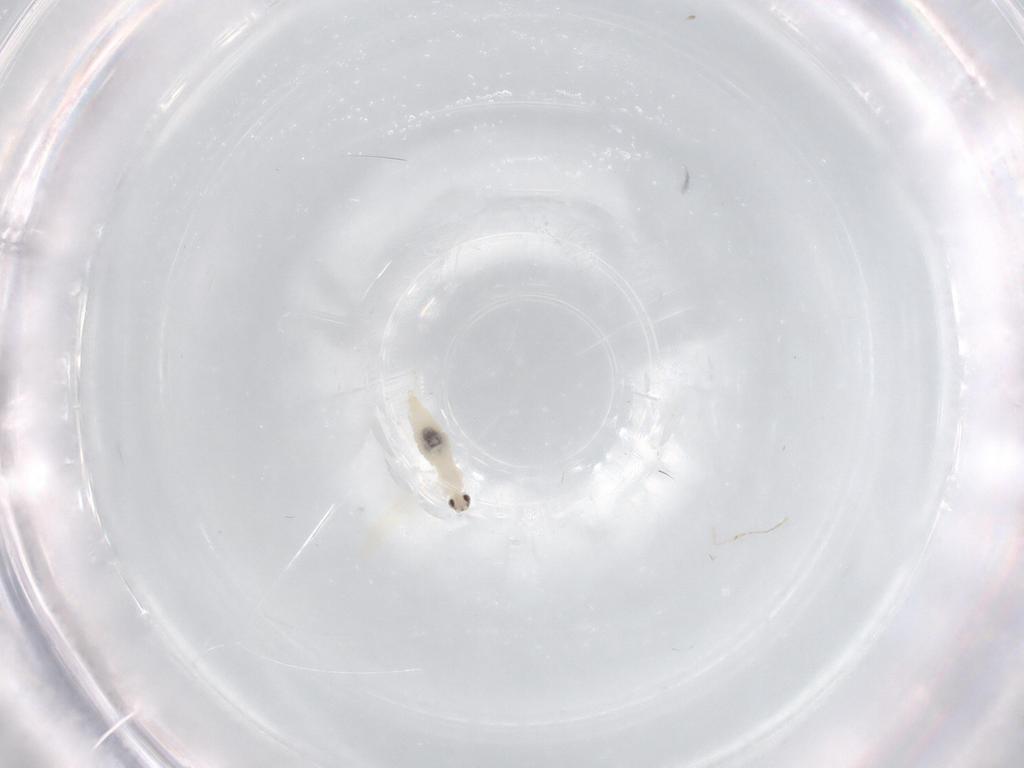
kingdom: Animalia
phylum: Arthropoda
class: Insecta
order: Diptera
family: Cecidomyiidae
